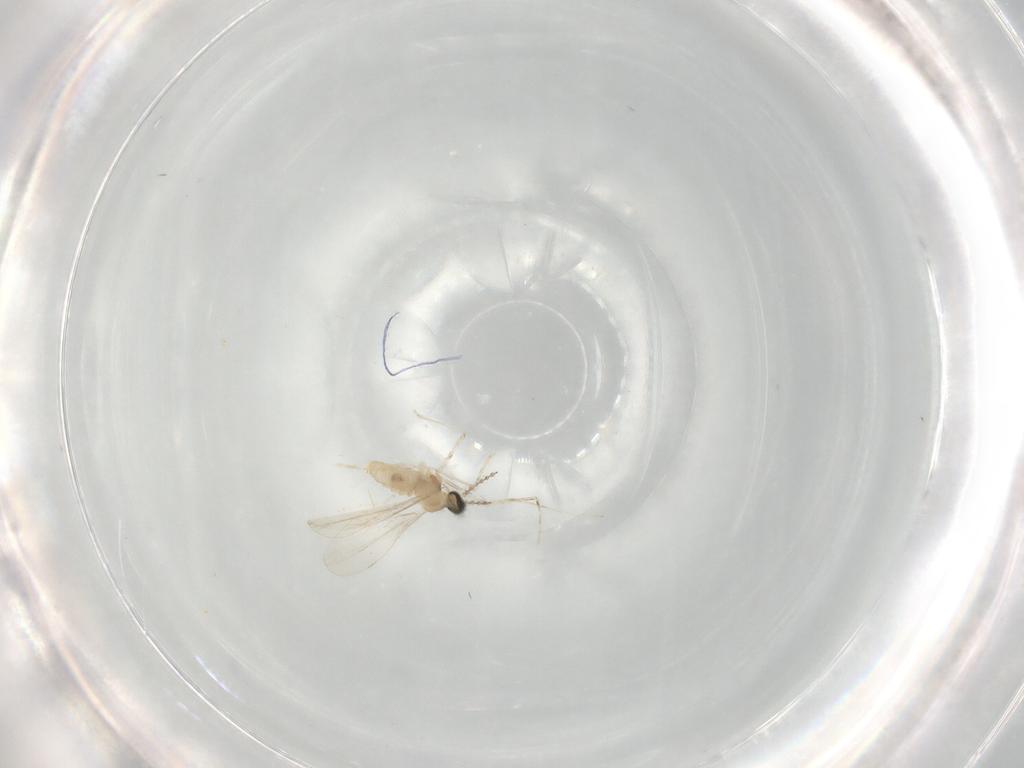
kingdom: Animalia
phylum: Arthropoda
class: Insecta
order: Diptera
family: Cecidomyiidae
